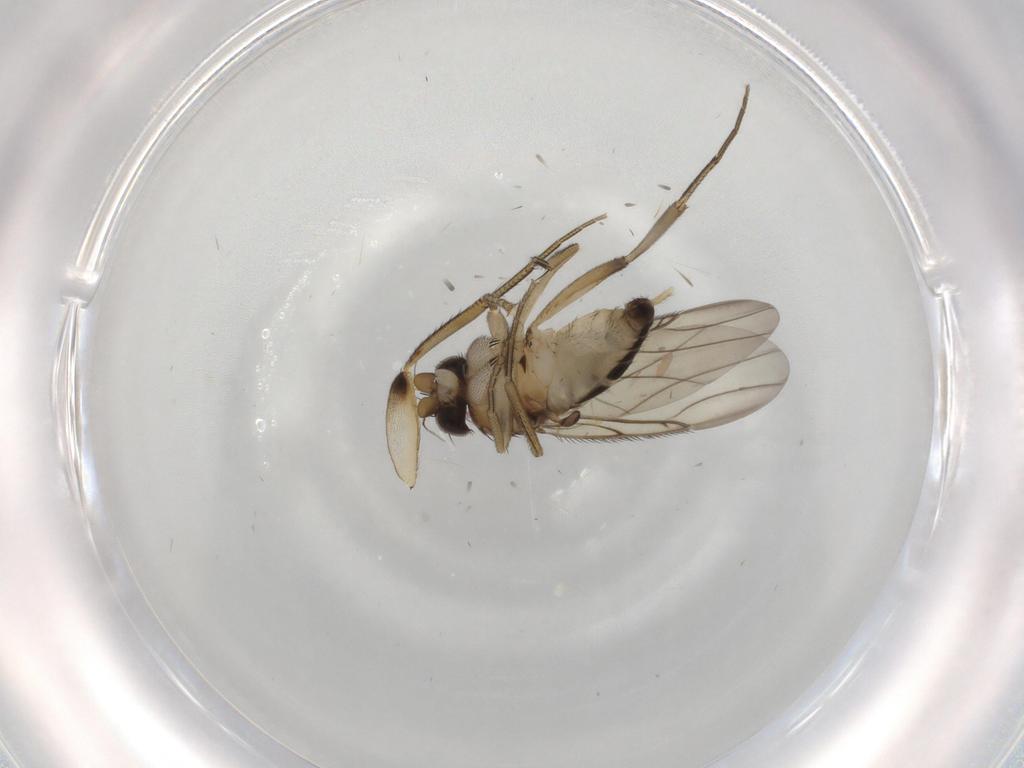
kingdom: Animalia
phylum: Arthropoda
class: Insecta
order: Diptera
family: Phoridae
